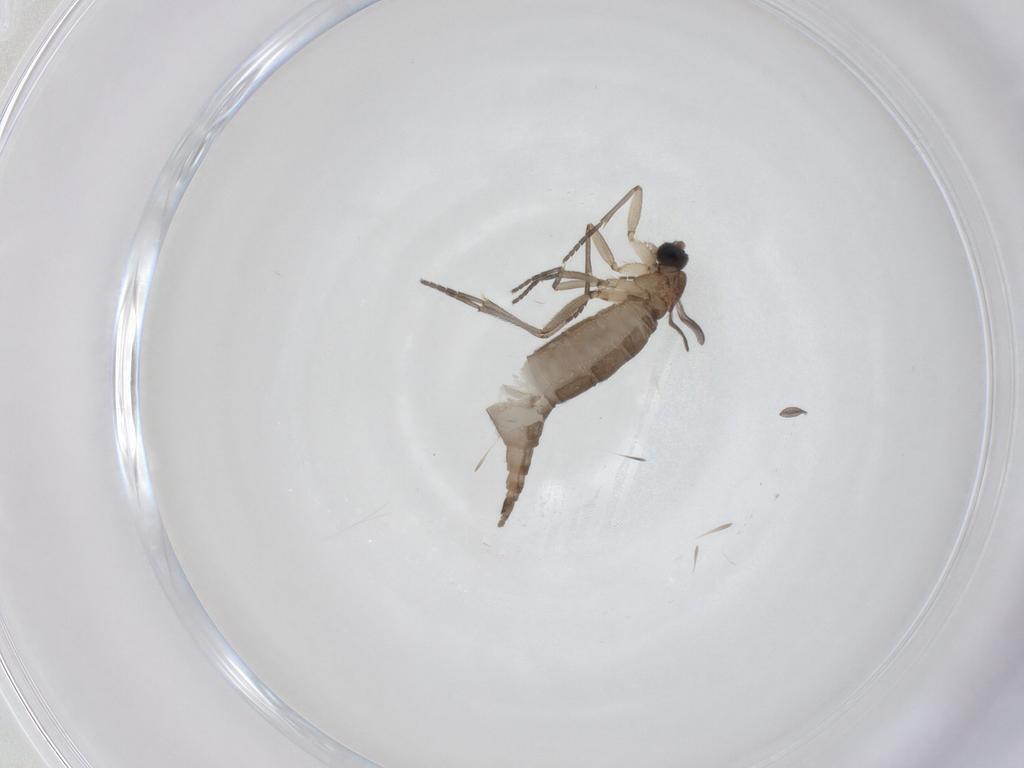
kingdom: Animalia
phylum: Arthropoda
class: Insecta
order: Diptera
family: Sciaridae
